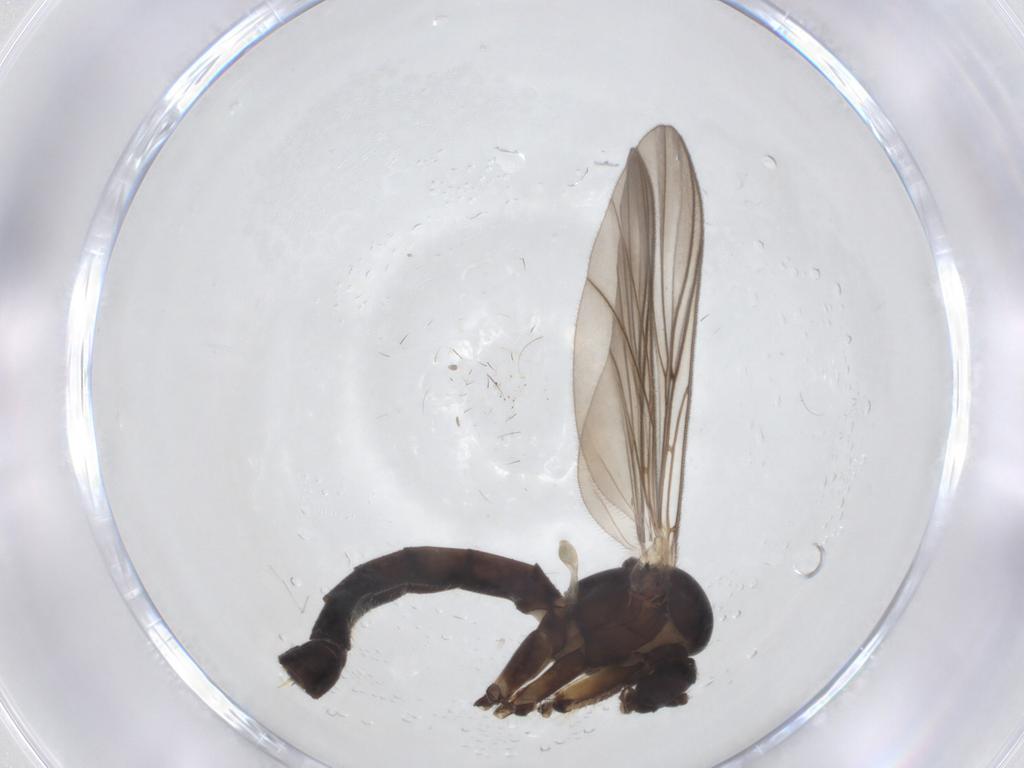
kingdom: Animalia
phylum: Arthropoda
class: Insecta
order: Diptera
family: Mycetophilidae
